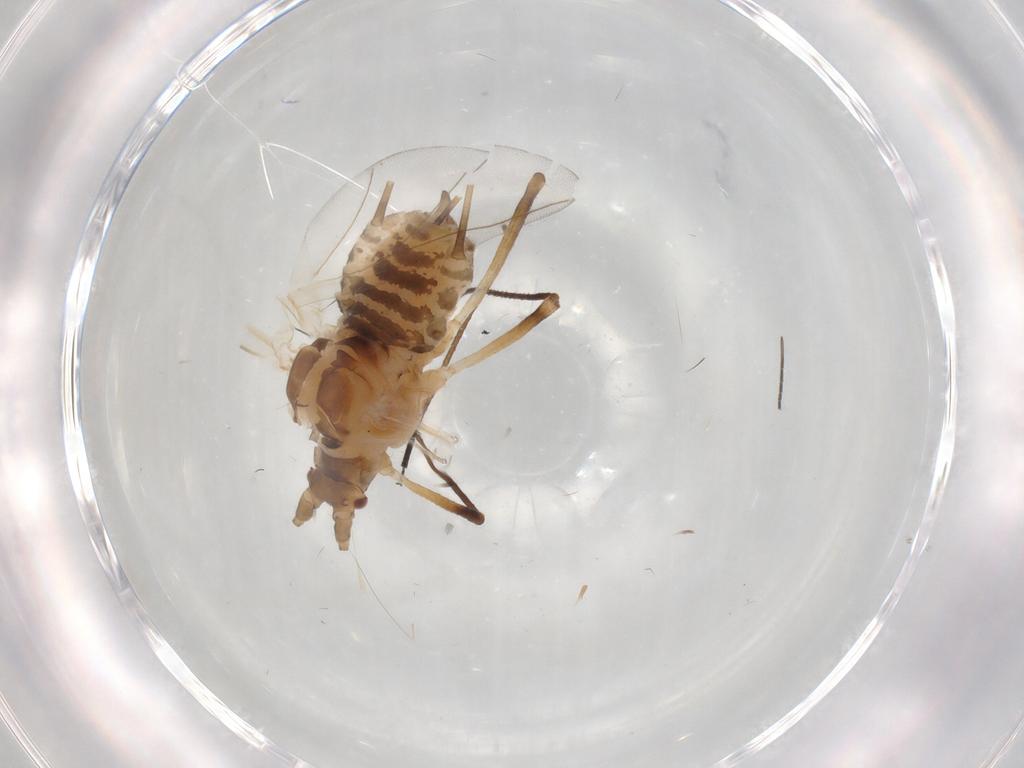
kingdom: Animalia
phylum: Arthropoda
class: Insecta
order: Hemiptera
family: Aphididae
